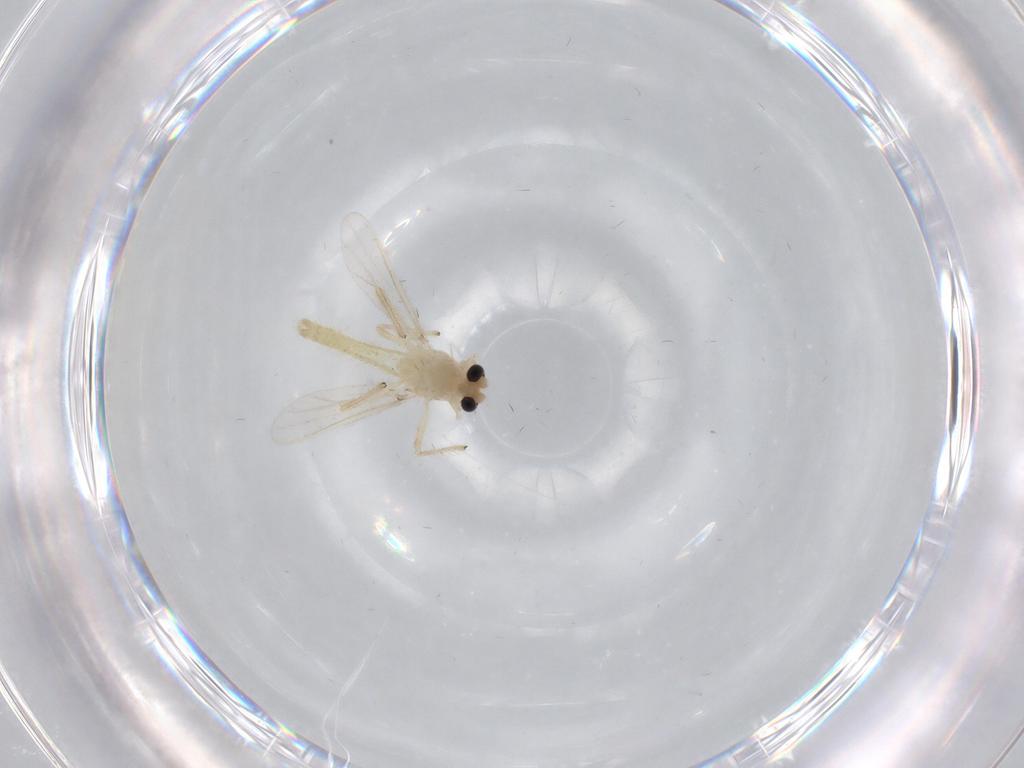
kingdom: Animalia
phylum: Arthropoda
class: Insecta
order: Diptera
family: Chironomidae
